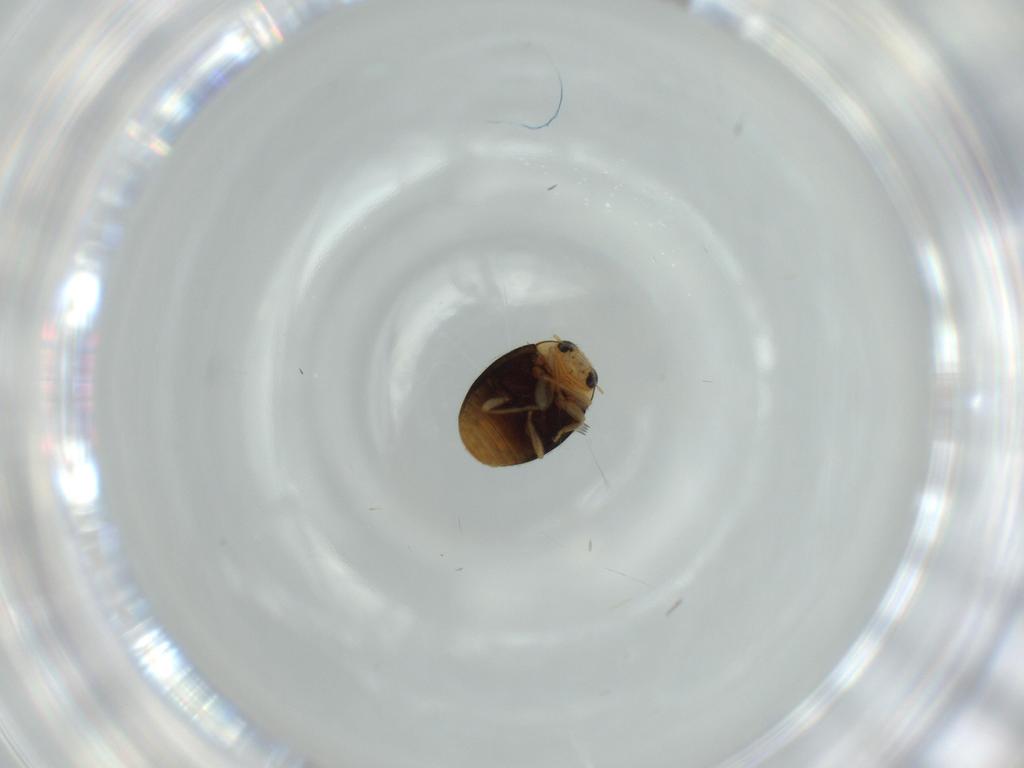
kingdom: Animalia
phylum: Arthropoda
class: Insecta
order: Coleoptera
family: Coccinellidae
